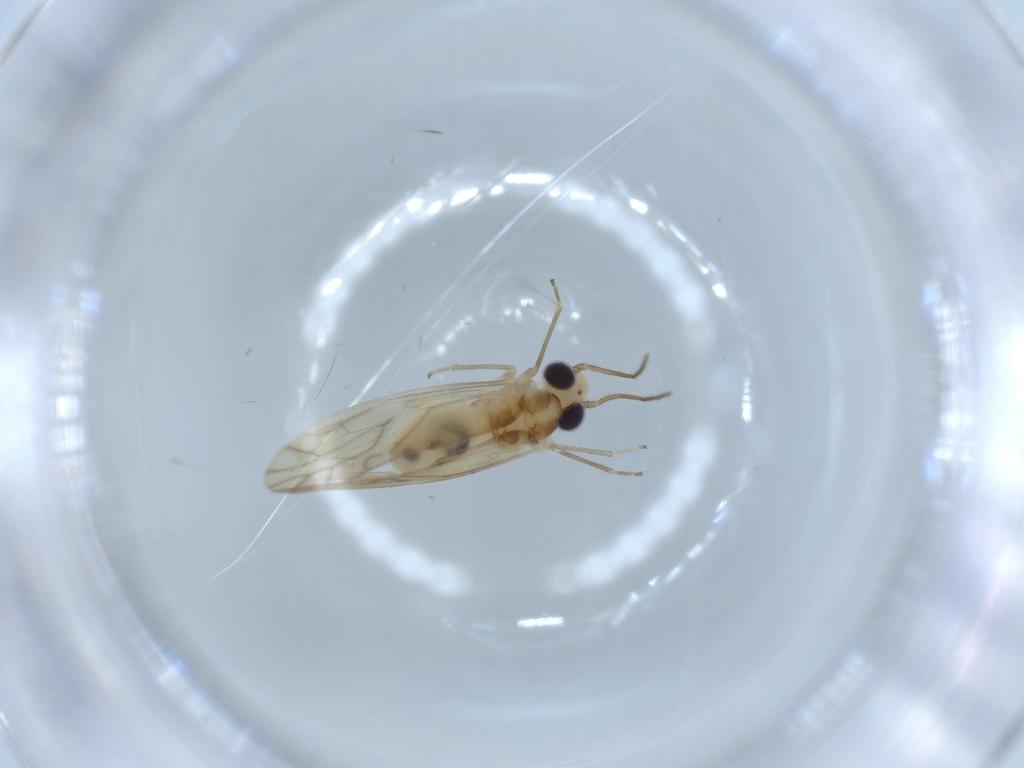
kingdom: Animalia
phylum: Arthropoda
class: Insecta
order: Psocodea
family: Caeciliusidae
